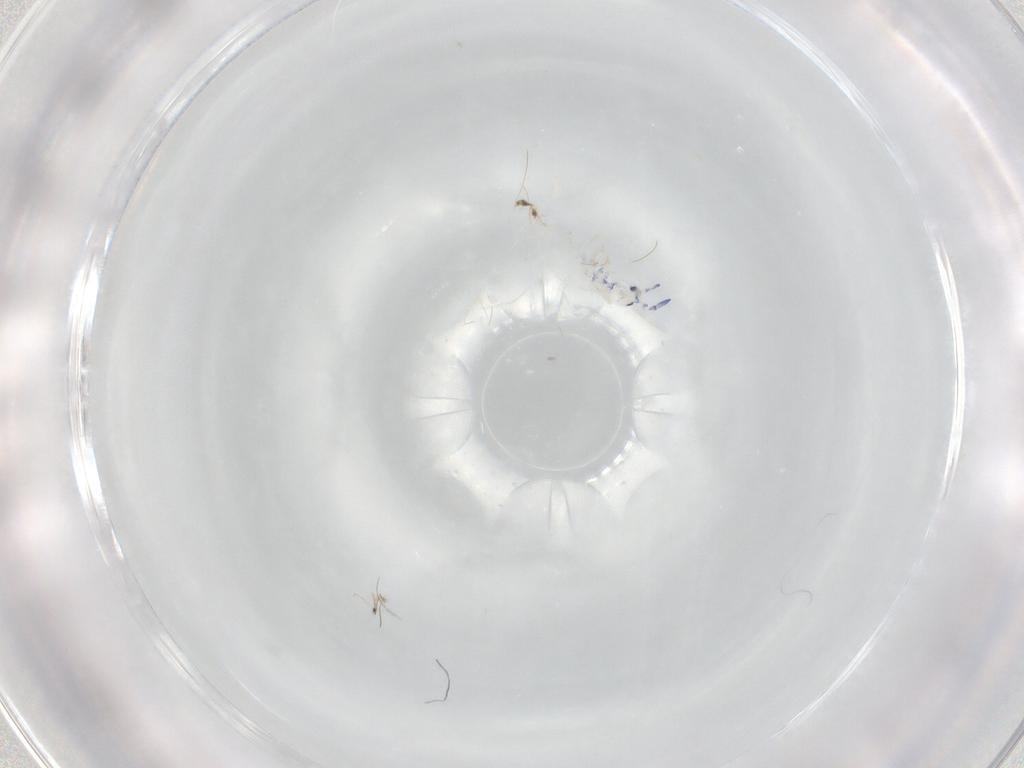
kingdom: Animalia
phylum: Arthropoda
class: Collembola
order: Entomobryomorpha
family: Entomobryidae
